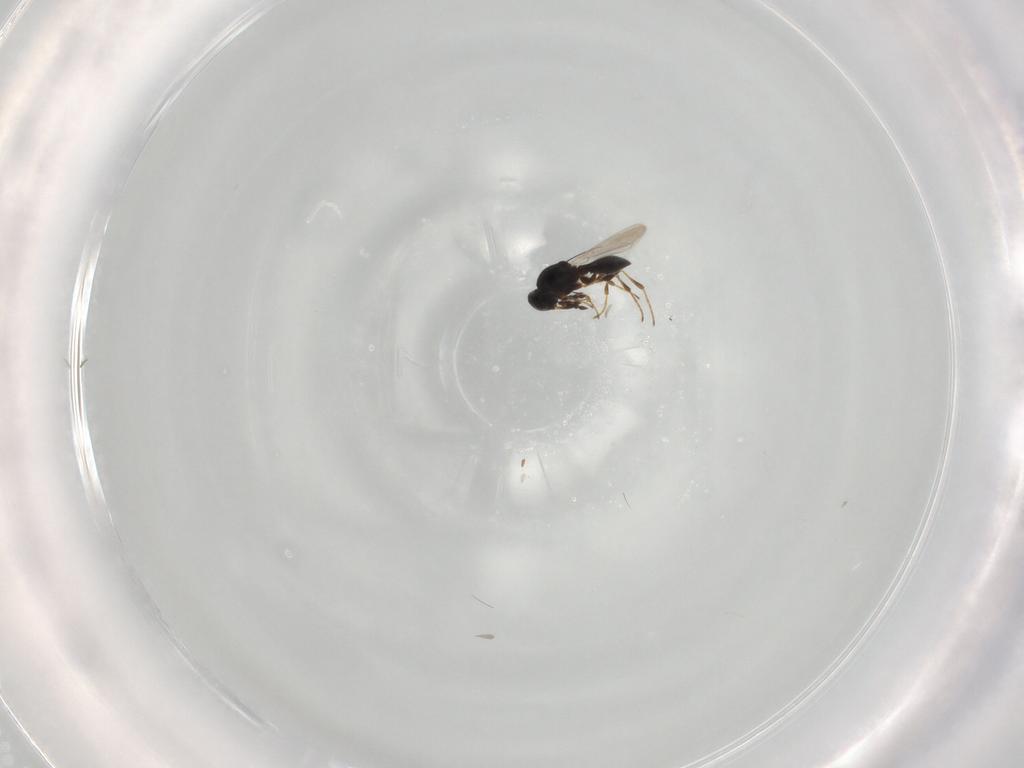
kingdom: Animalia
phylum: Arthropoda
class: Insecta
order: Hymenoptera
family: Platygastridae
